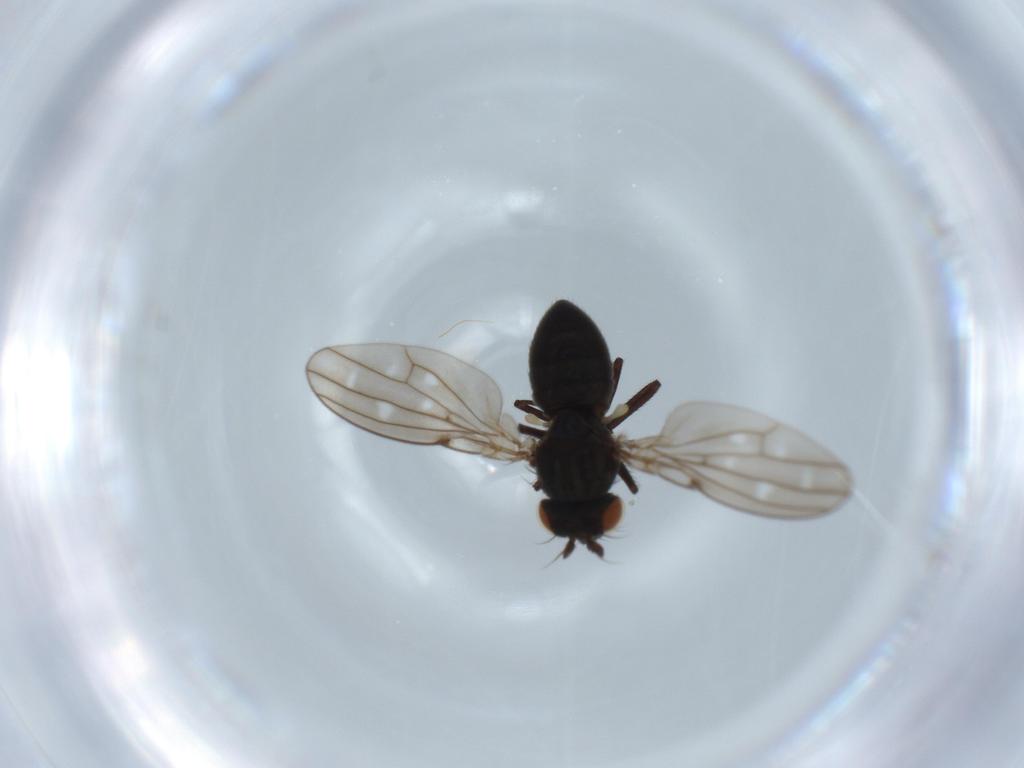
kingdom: Animalia
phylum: Arthropoda
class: Insecta
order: Diptera
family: Ephydridae
